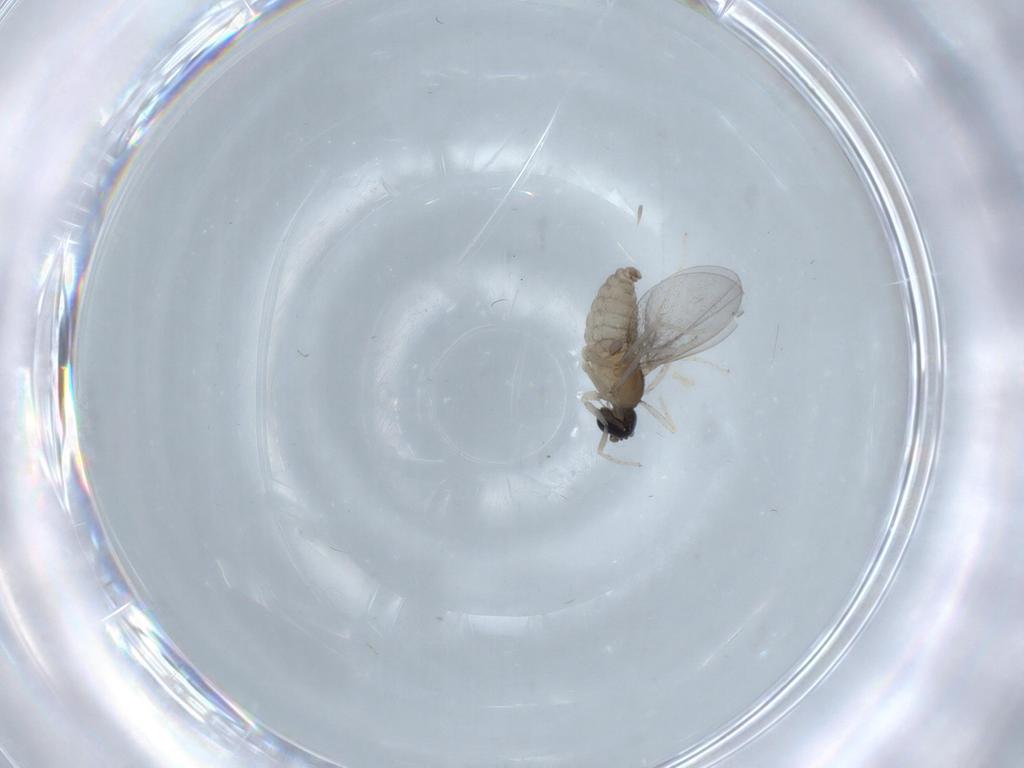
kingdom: Animalia
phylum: Arthropoda
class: Insecta
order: Diptera
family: Cecidomyiidae
